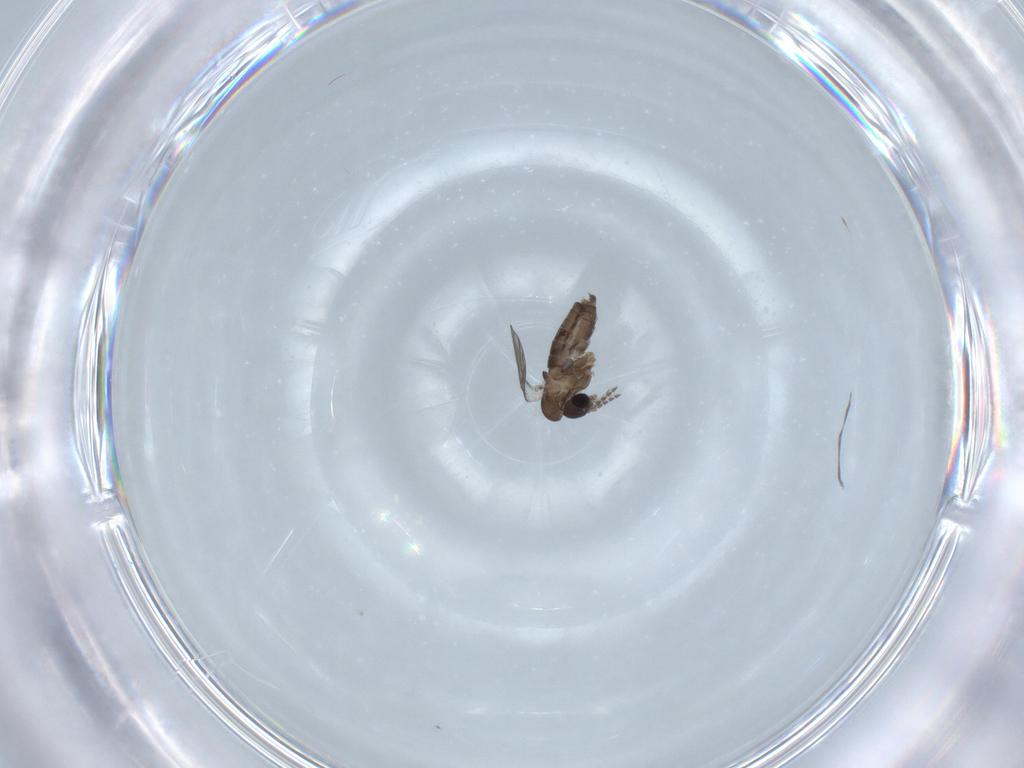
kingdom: Animalia
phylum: Arthropoda
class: Insecta
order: Diptera
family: Muscidae
